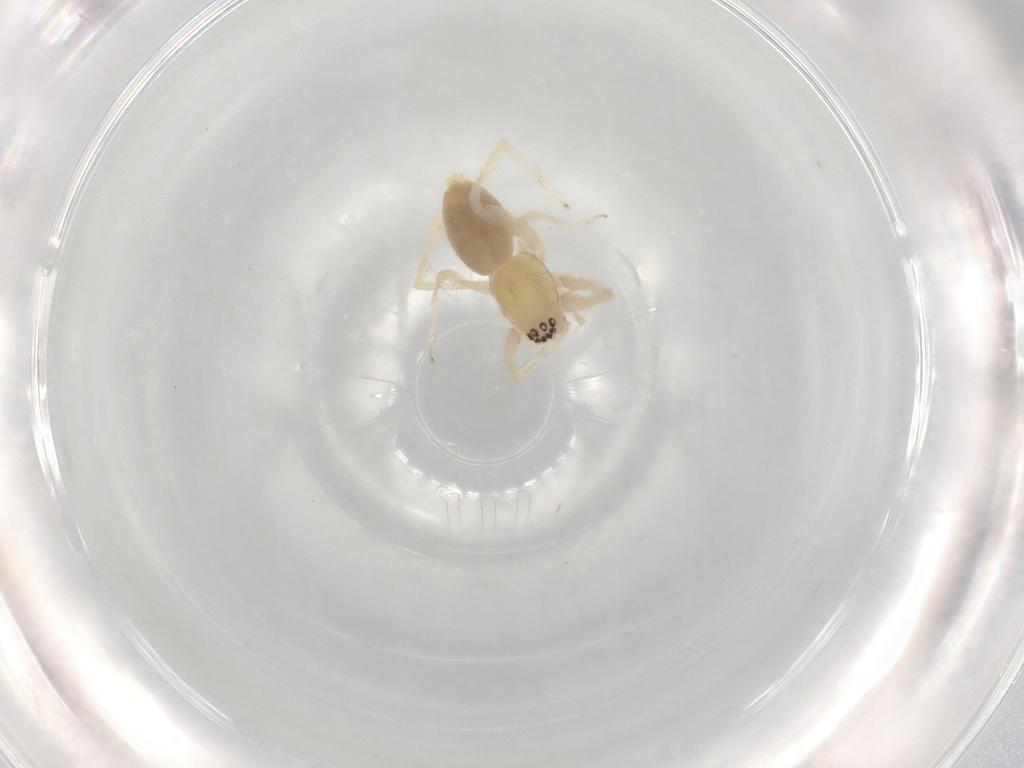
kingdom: Animalia
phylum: Arthropoda
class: Arachnida
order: Araneae
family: Anyphaenidae
